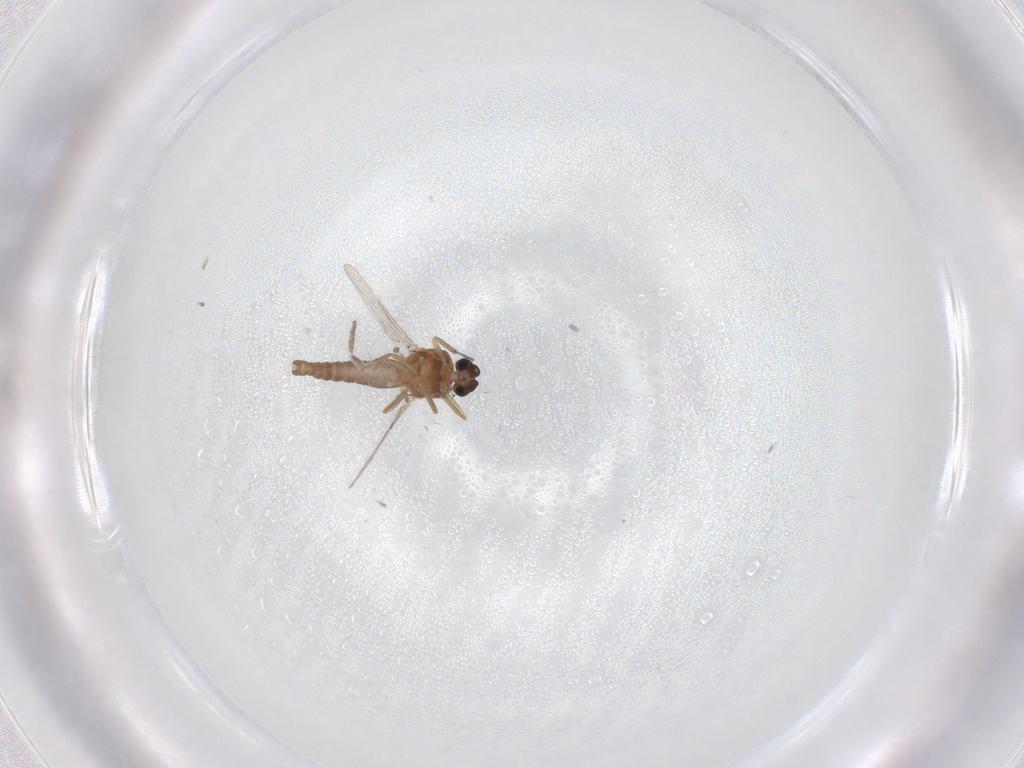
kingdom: Animalia
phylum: Arthropoda
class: Insecta
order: Diptera
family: Ceratopogonidae
